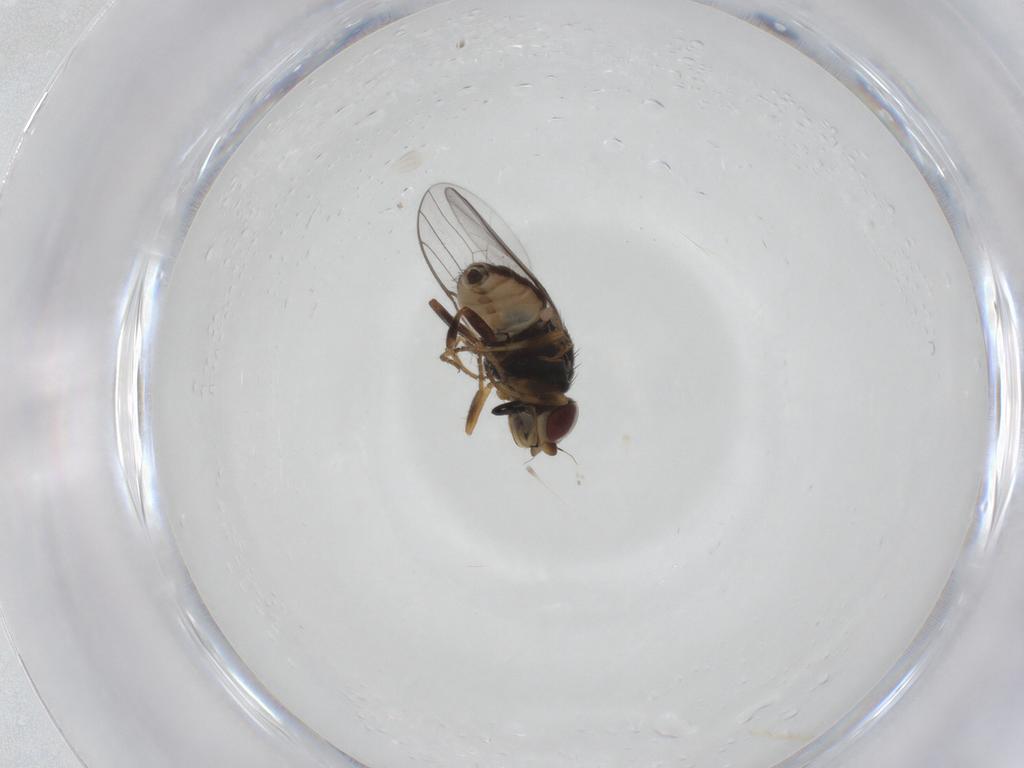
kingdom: Animalia
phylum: Arthropoda
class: Insecta
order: Diptera
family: Chloropidae
